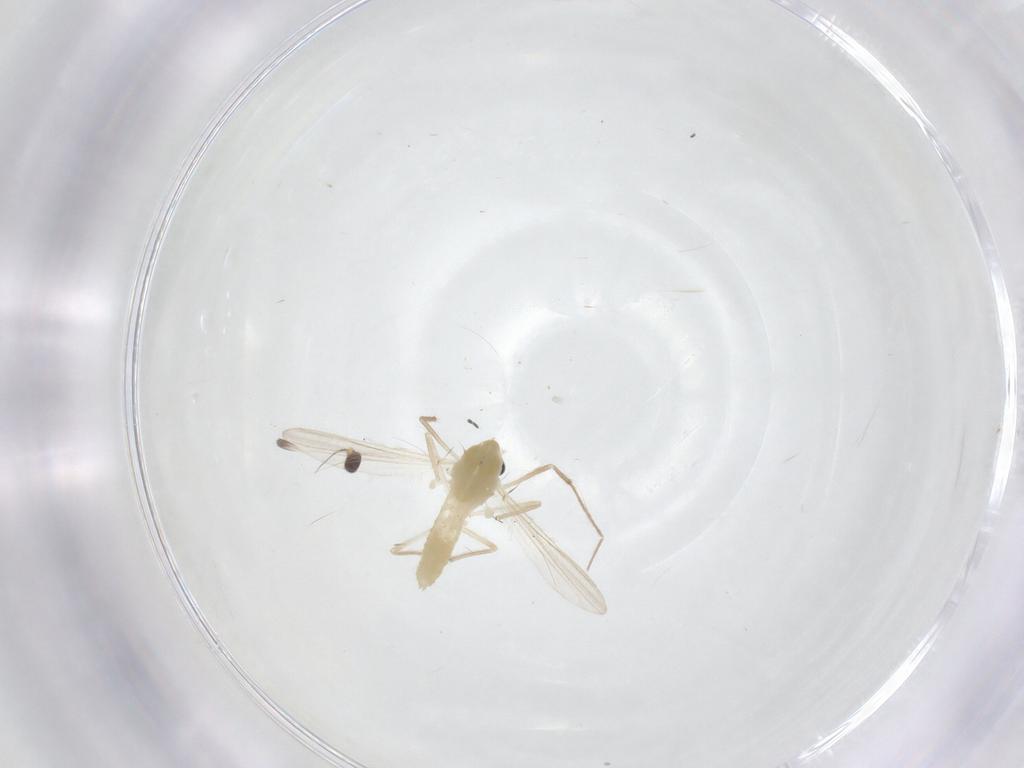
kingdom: Animalia
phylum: Arthropoda
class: Insecta
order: Diptera
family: Chironomidae
